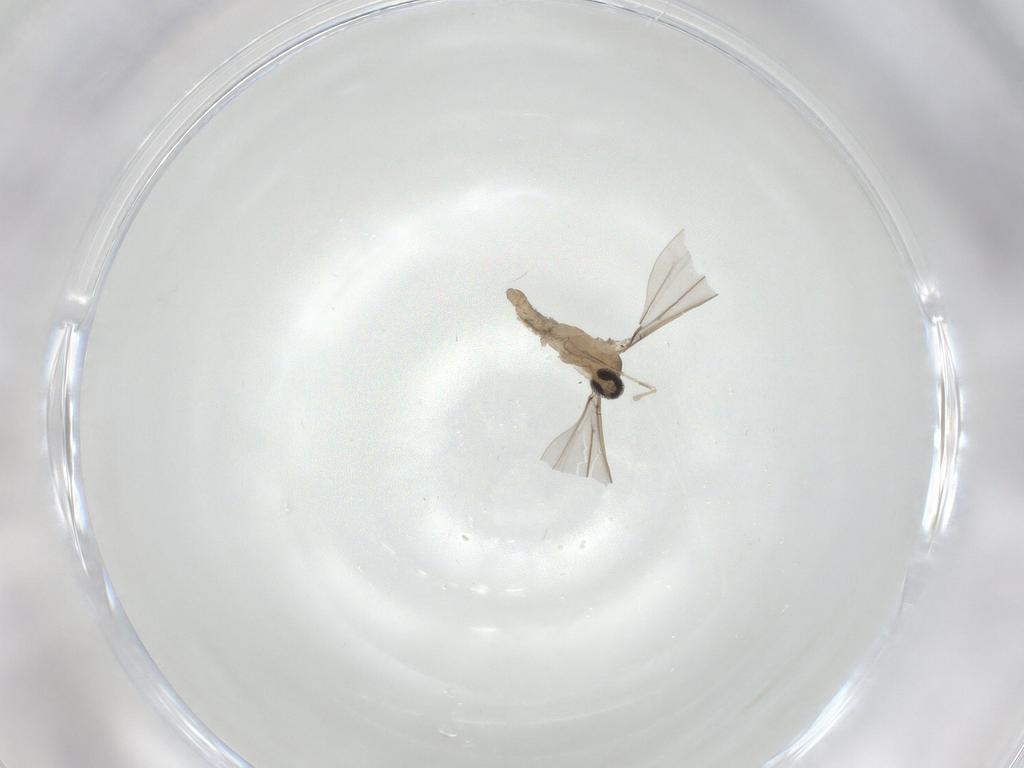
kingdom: Animalia
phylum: Arthropoda
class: Insecta
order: Diptera
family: Cecidomyiidae
